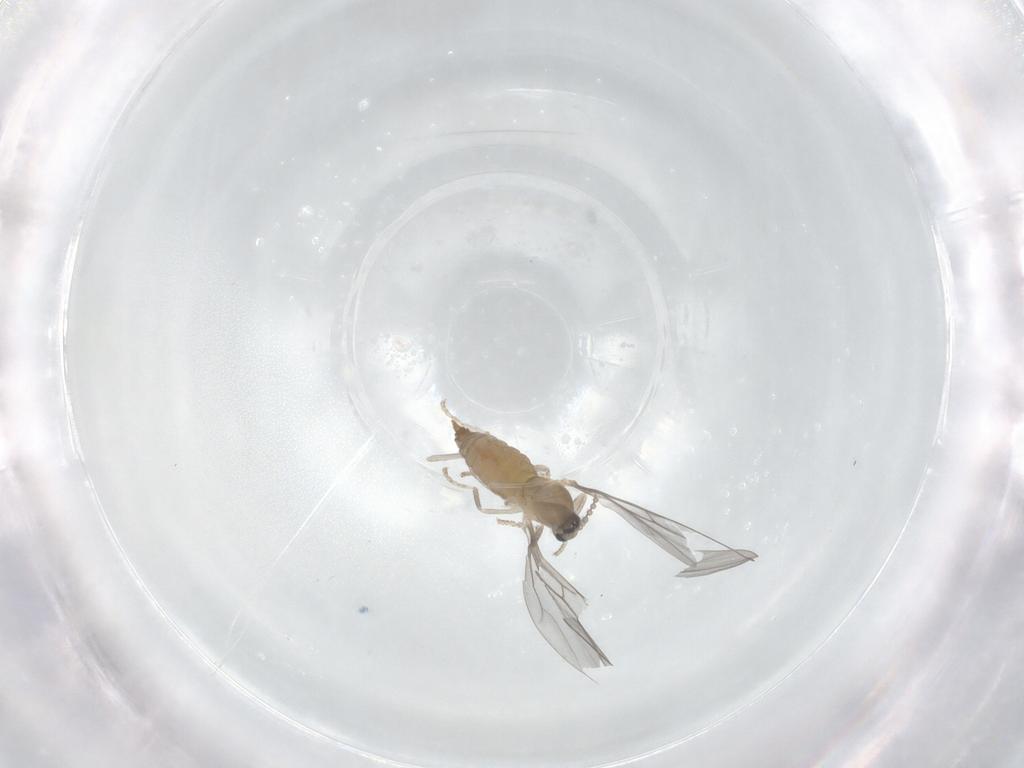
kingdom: Animalia
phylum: Arthropoda
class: Insecta
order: Diptera
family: Cecidomyiidae
